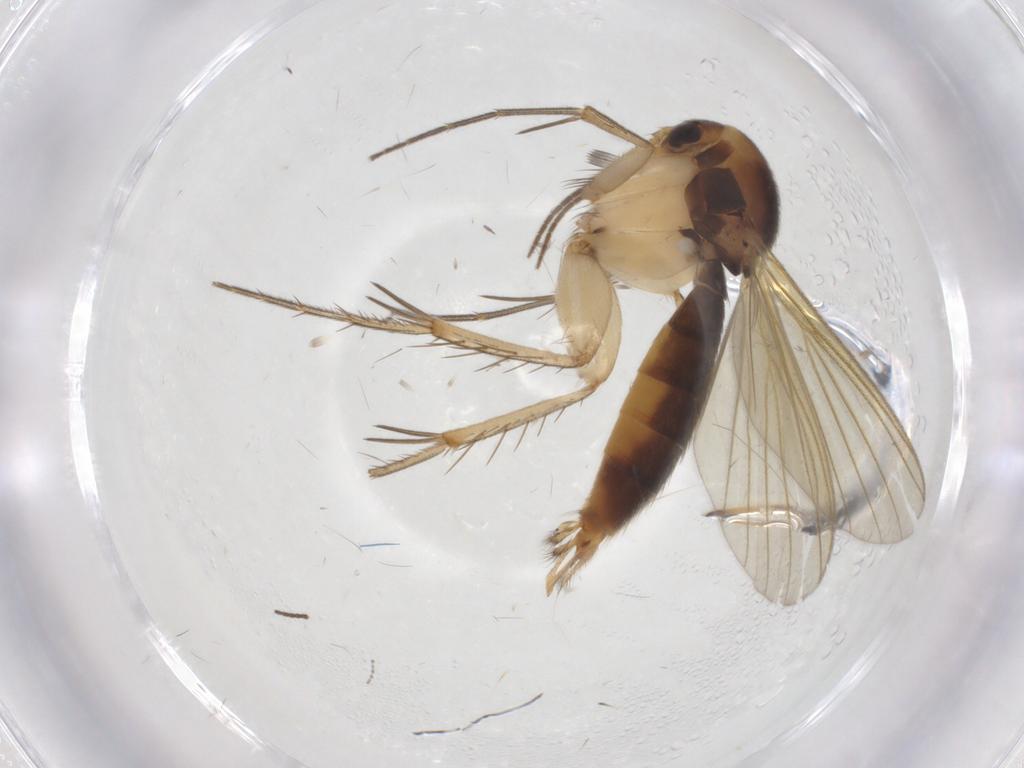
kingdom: Animalia
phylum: Arthropoda
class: Insecta
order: Diptera
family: Mycetophilidae
